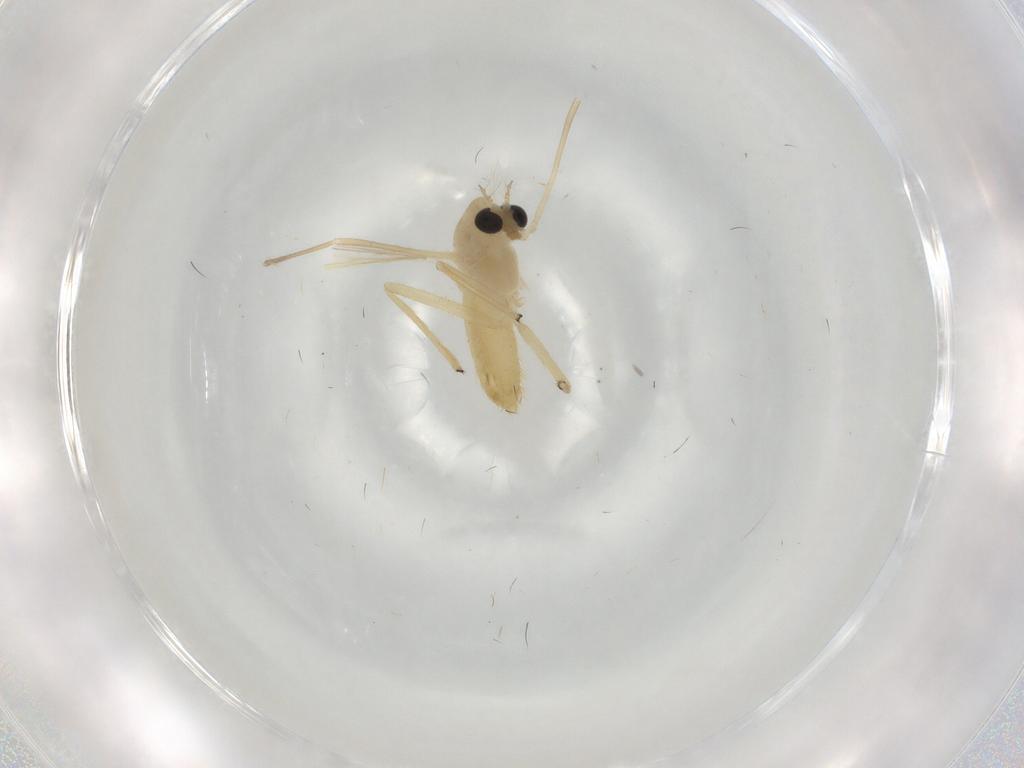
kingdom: Animalia
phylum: Arthropoda
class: Insecta
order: Diptera
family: Chironomidae
